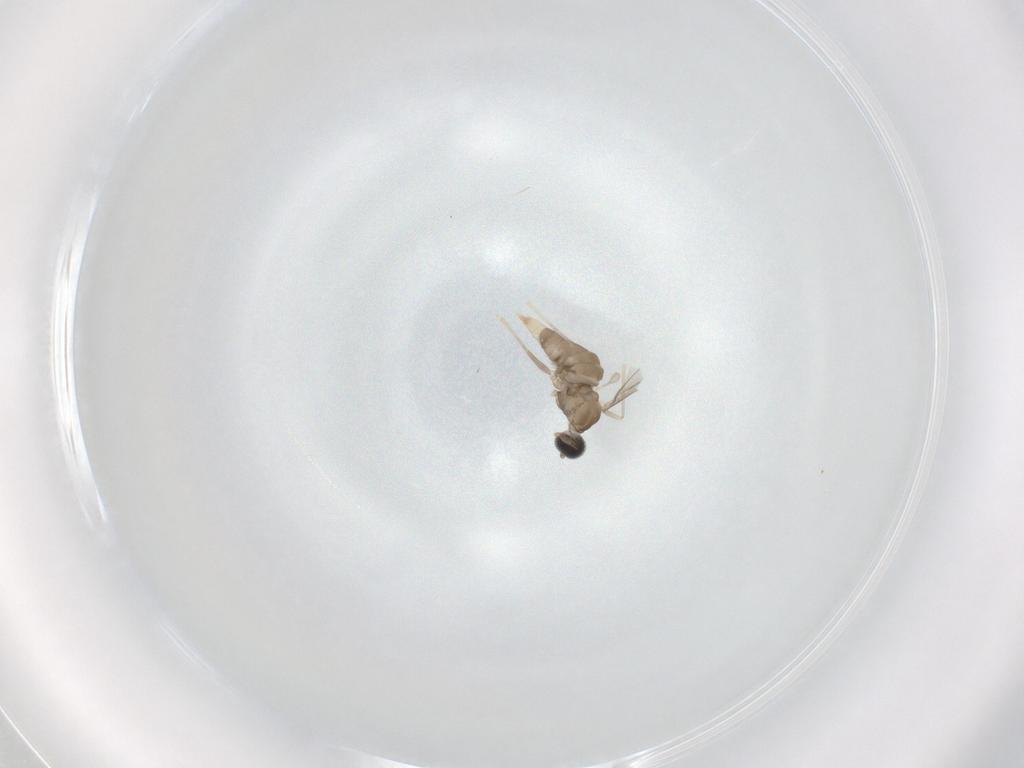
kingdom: Animalia
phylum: Arthropoda
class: Insecta
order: Diptera
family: Cecidomyiidae
